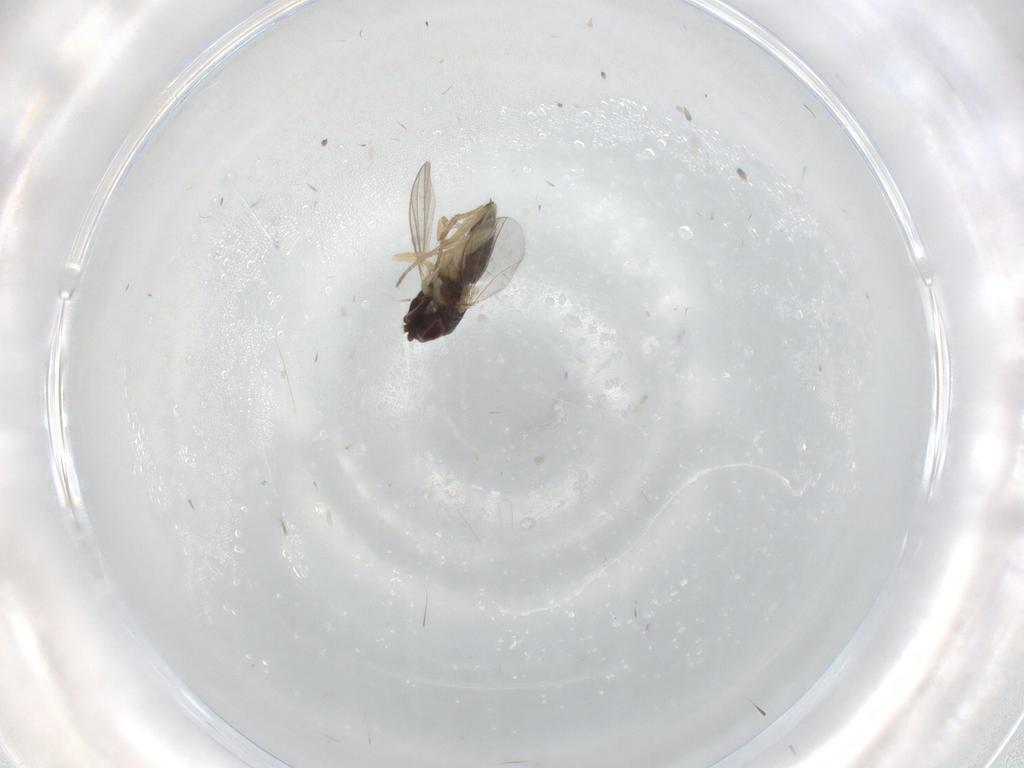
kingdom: Animalia
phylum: Arthropoda
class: Insecta
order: Diptera
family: Dolichopodidae
